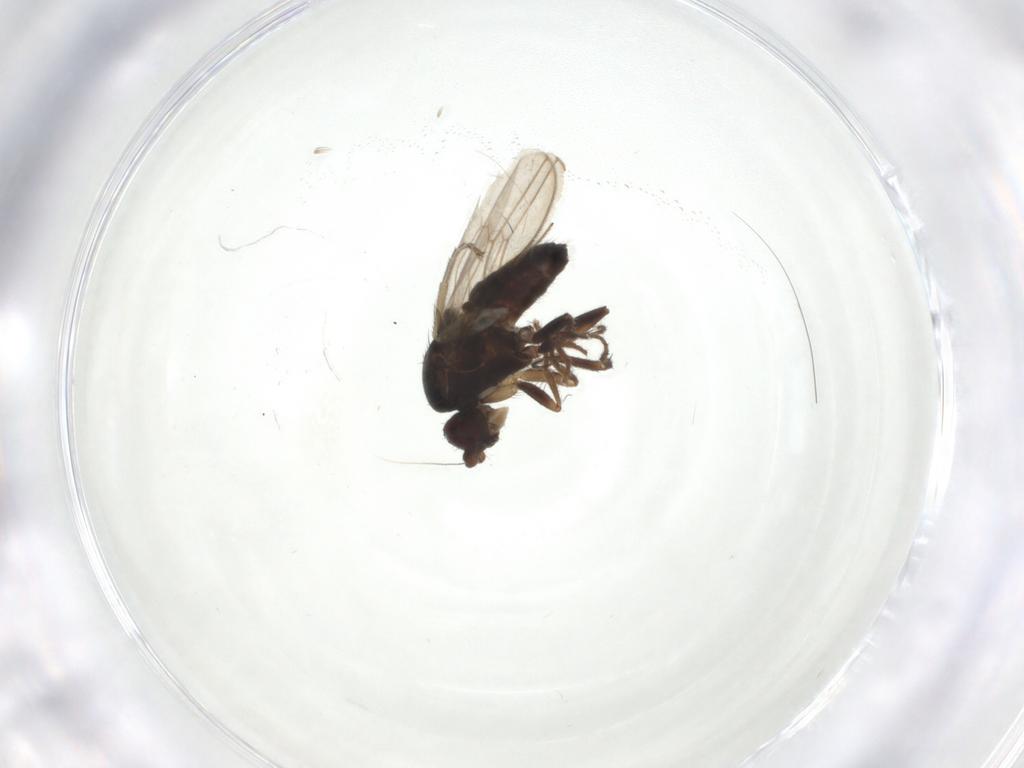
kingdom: Animalia
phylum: Arthropoda
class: Insecta
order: Diptera
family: Sphaeroceridae
